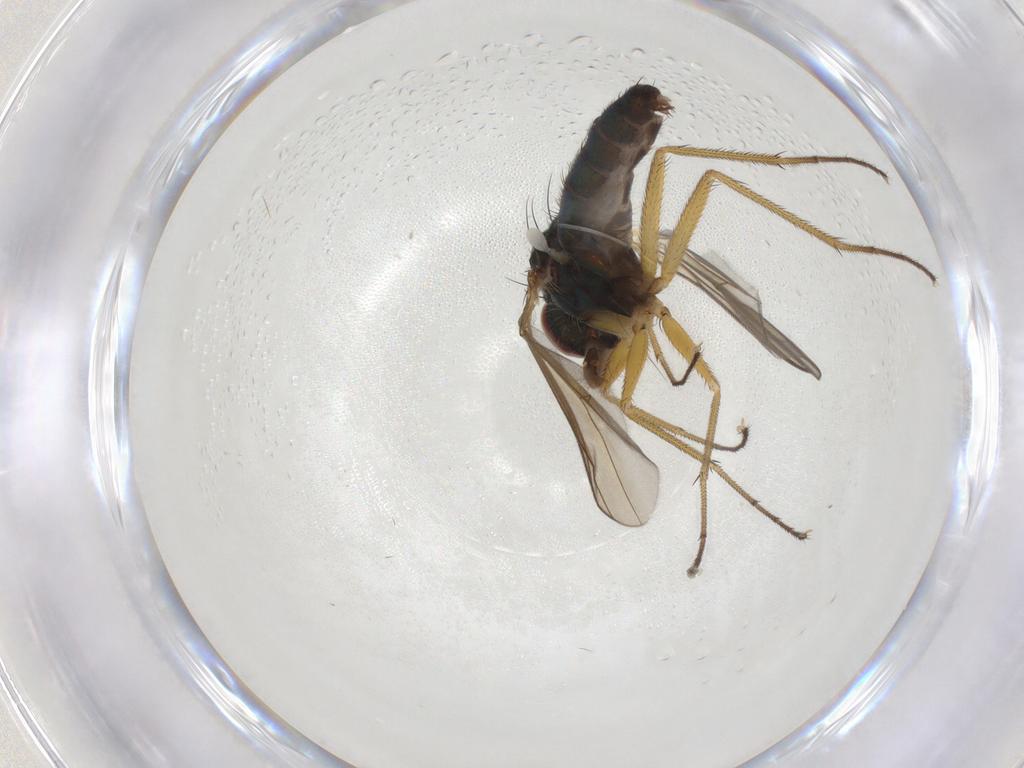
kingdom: Animalia
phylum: Arthropoda
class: Insecta
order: Diptera
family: Dolichopodidae
